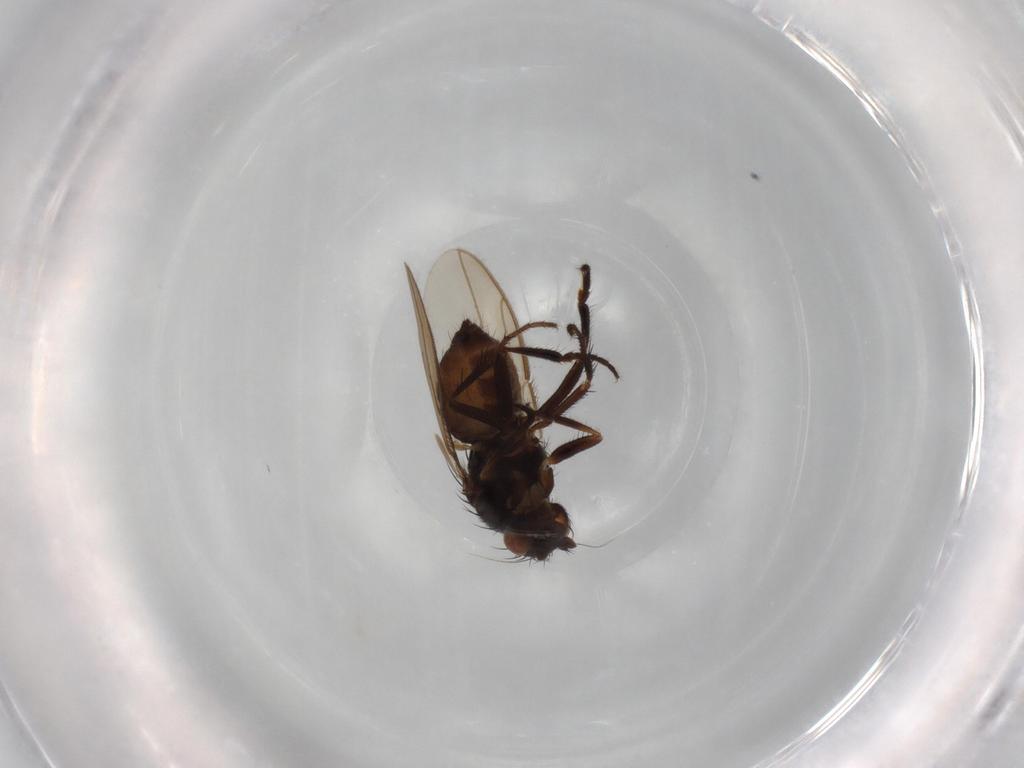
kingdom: Animalia
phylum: Arthropoda
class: Insecta
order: Diptera
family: Sphaeroceridae
